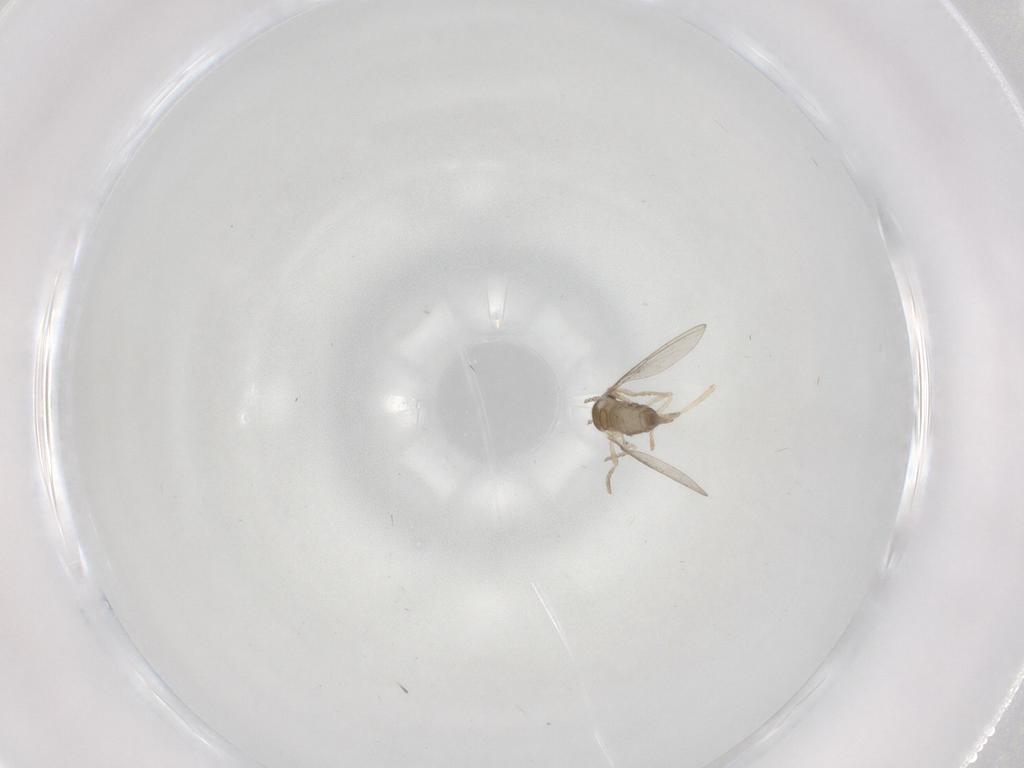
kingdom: Animalia
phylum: Arthropoda
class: Insecta
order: Diptera
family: Cecidomyiidae
